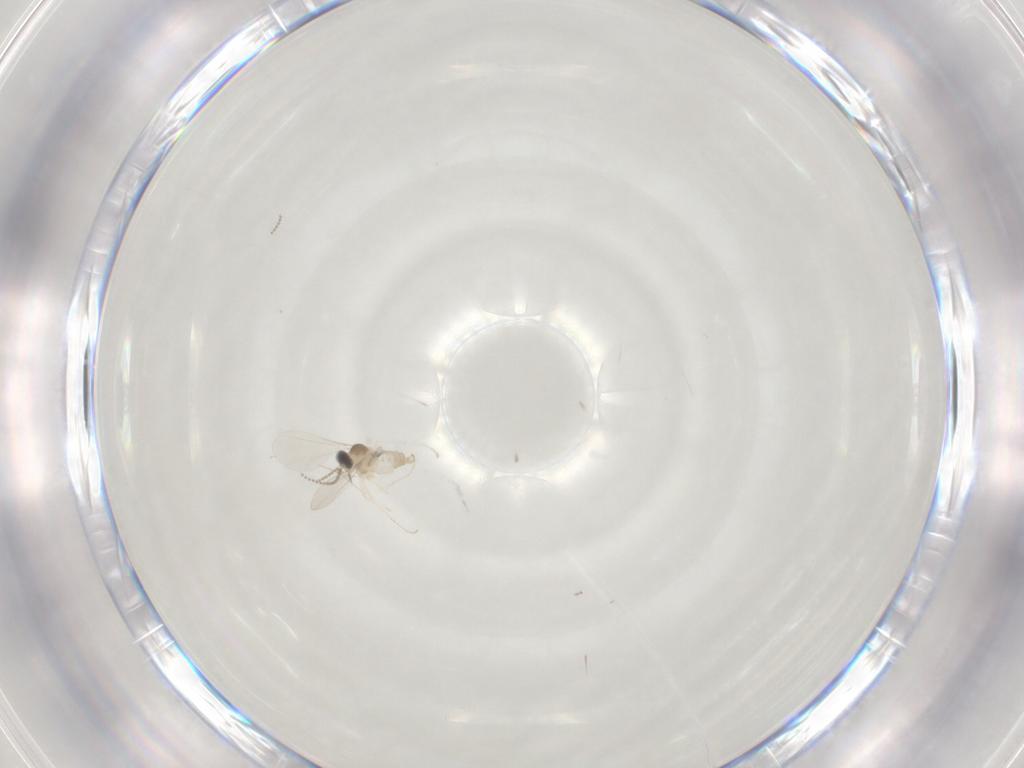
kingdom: Animalia
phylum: Arthropoda
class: Insecta
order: Diptera
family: Cecidomyiidae
